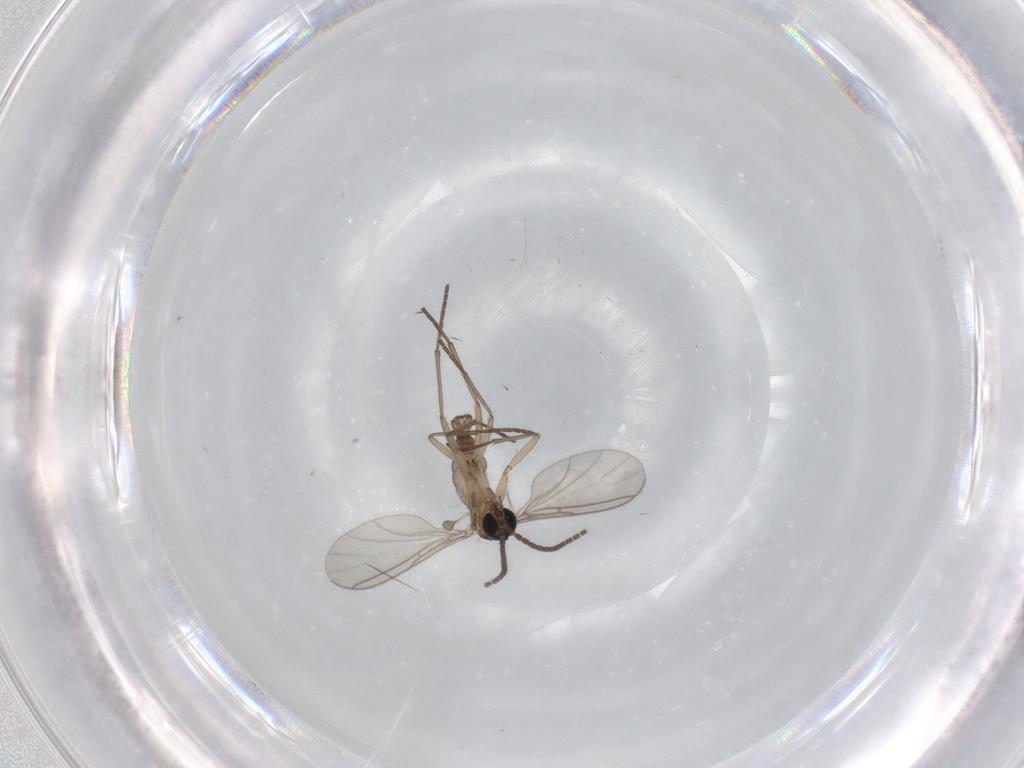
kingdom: Animalia
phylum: Arthropoda
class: Insecta
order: Diptera
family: Sciaridae
